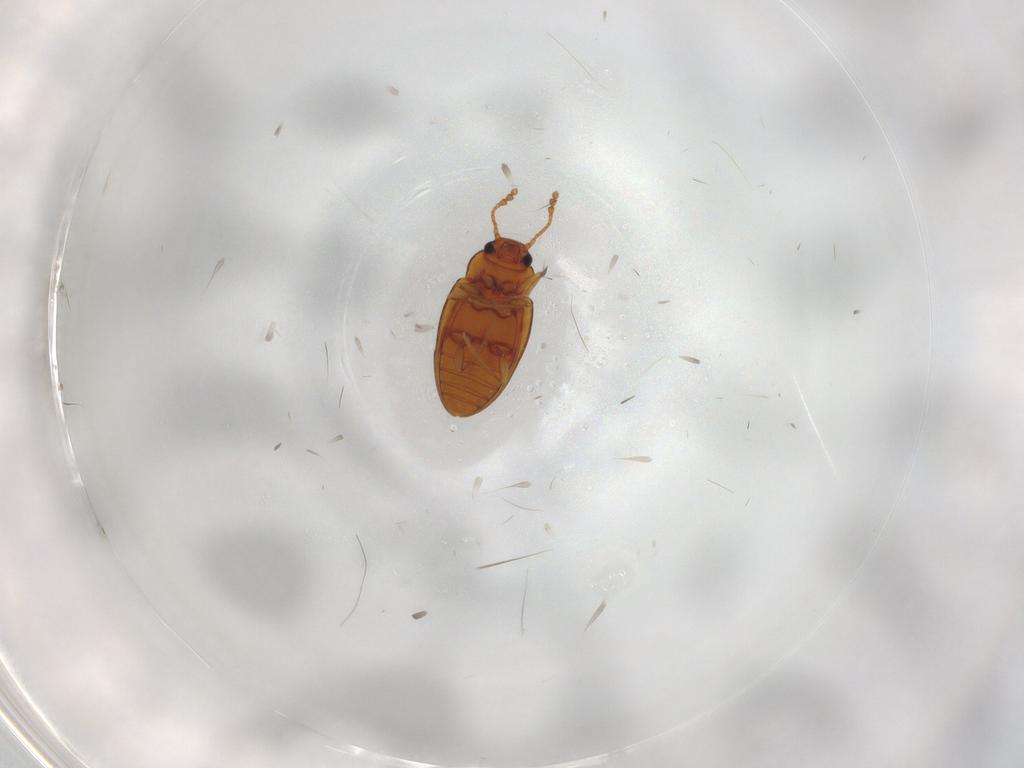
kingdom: Animalia
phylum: Arthropoda
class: Insecta
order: Coleoptera
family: Erotylidae
